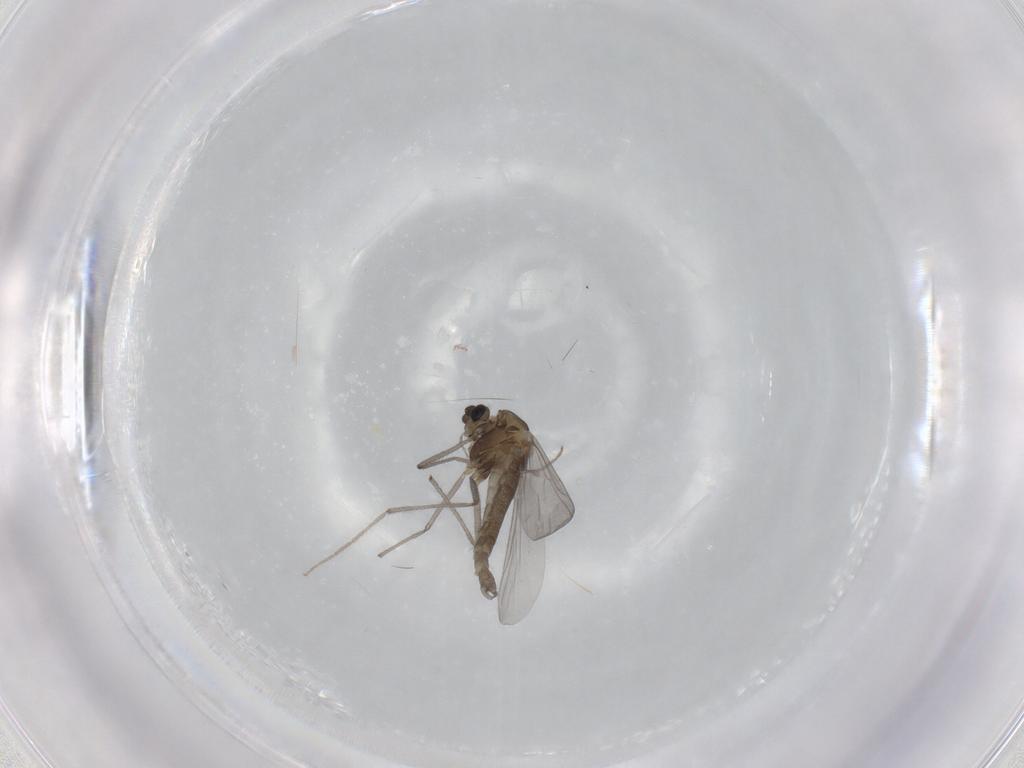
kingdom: Animalia
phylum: Arthropoda
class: Insecta
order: Diptera
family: Chironomidae
